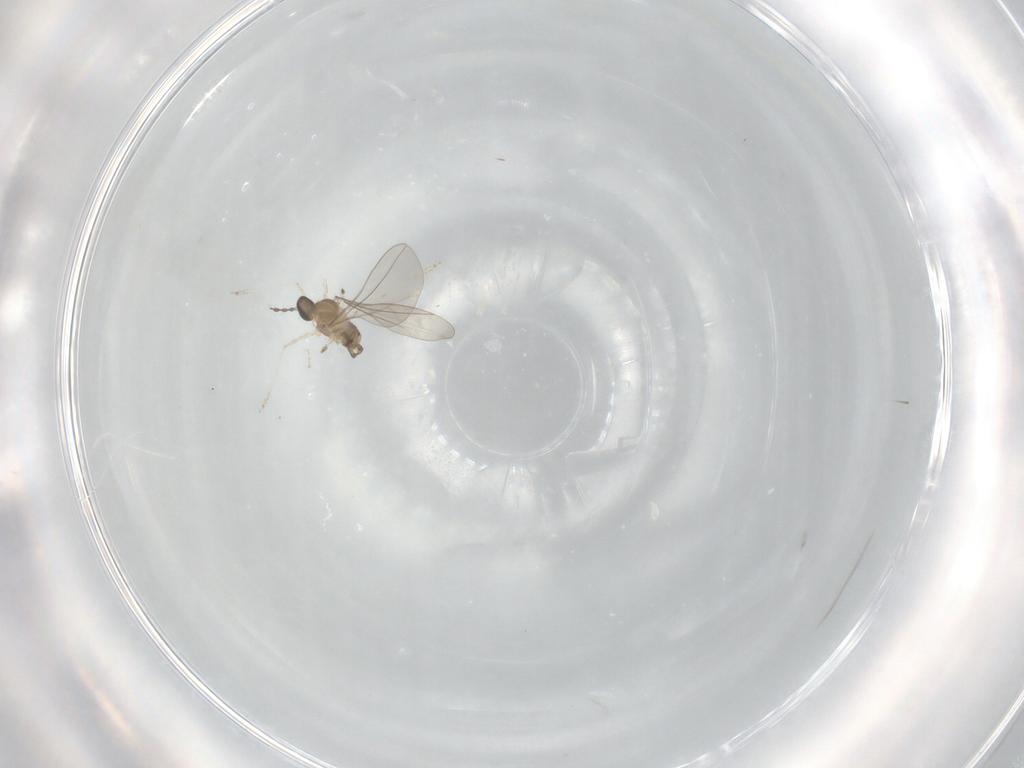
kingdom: Animalia
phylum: Arthropoda
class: Insecta
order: Diptera
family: Cecidomyiidae
